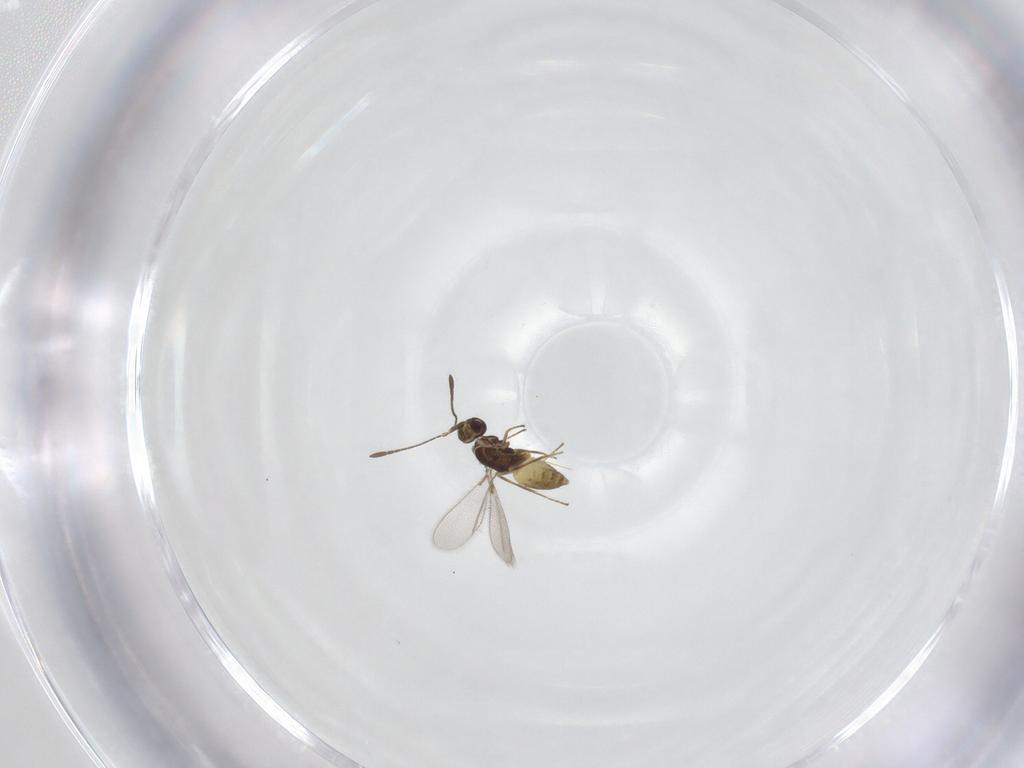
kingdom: Animalia
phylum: Arthropoda
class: Insecta
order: Hymenoptera
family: Mymaridae
